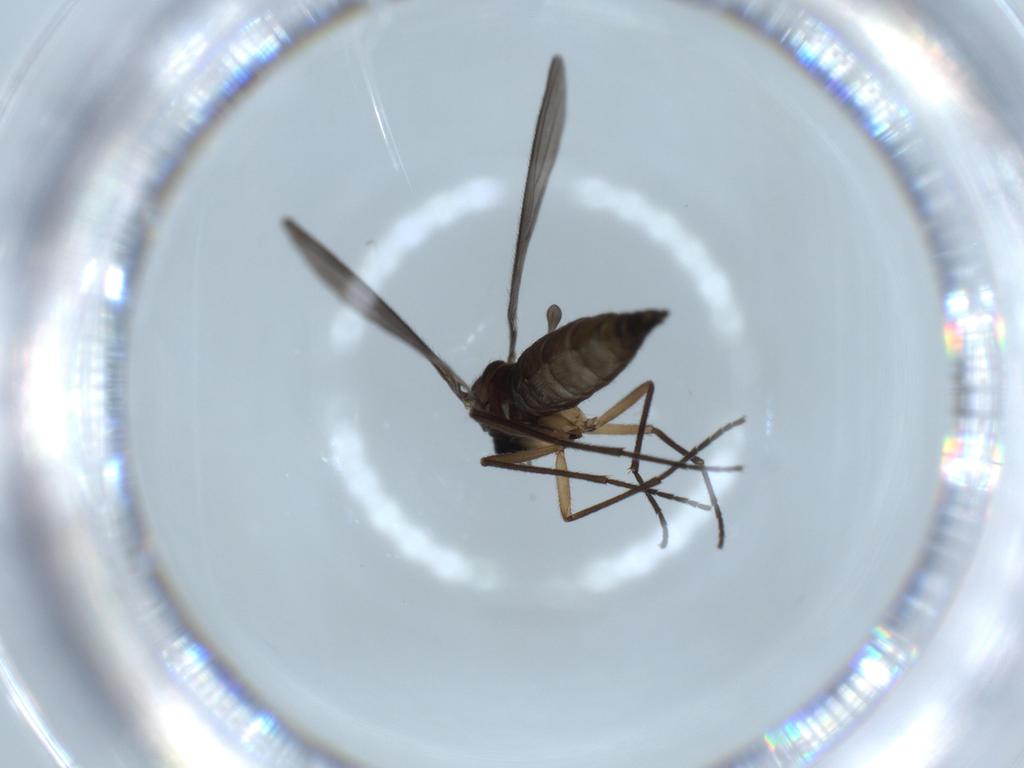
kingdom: Animalia
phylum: Arthropoda
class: Insecta
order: Diptera
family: Sciaridae
